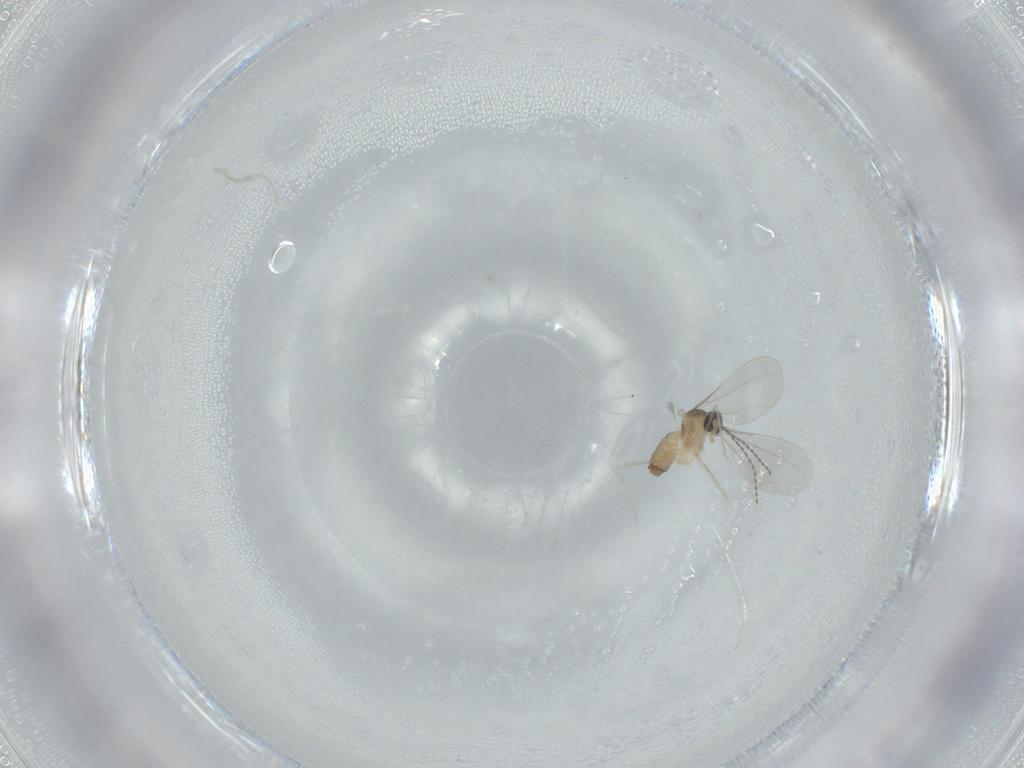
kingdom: Animalia
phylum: Arthropoda
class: Insecta
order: Diptera
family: Cecidomyiidae
